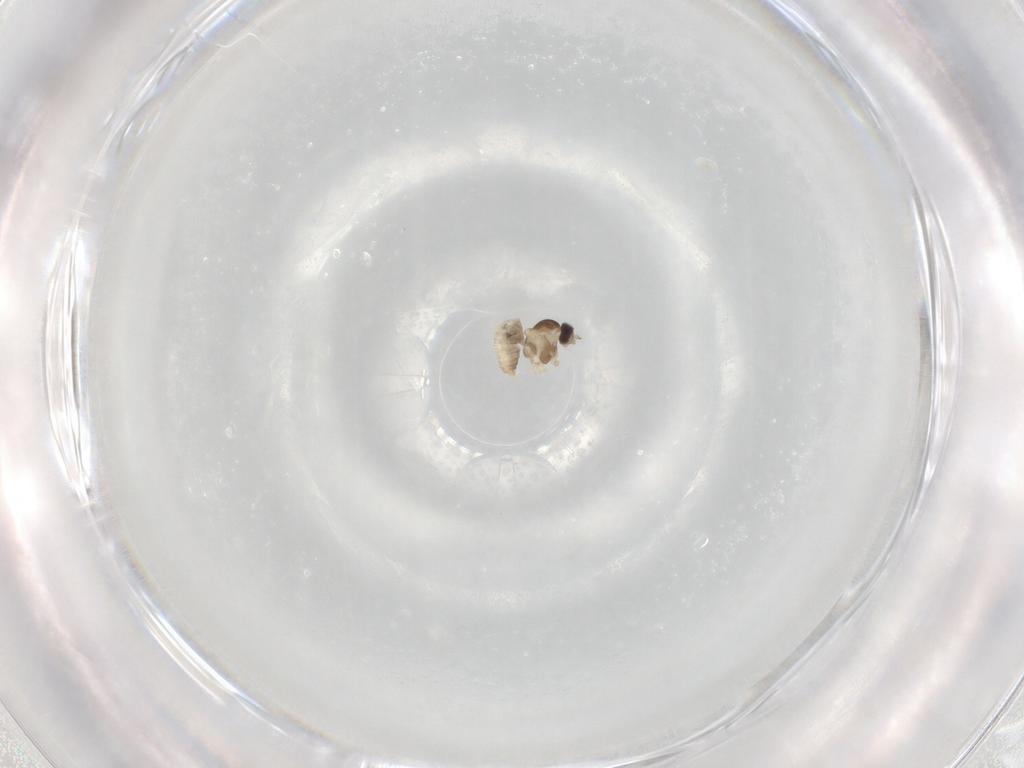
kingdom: Animalia
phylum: Arthropoda
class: Insecta
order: Diptera
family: Cecidomyiidae
